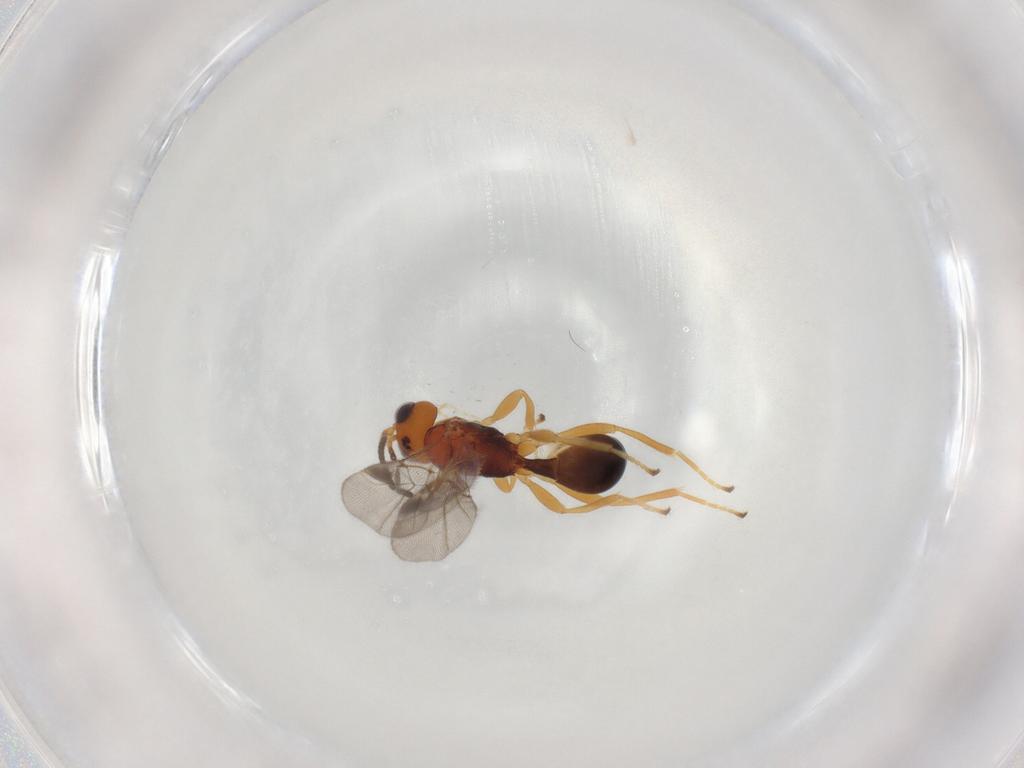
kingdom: Animalia
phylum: Arthropoda
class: Insecta
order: Hymenoptera
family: Braconidae
